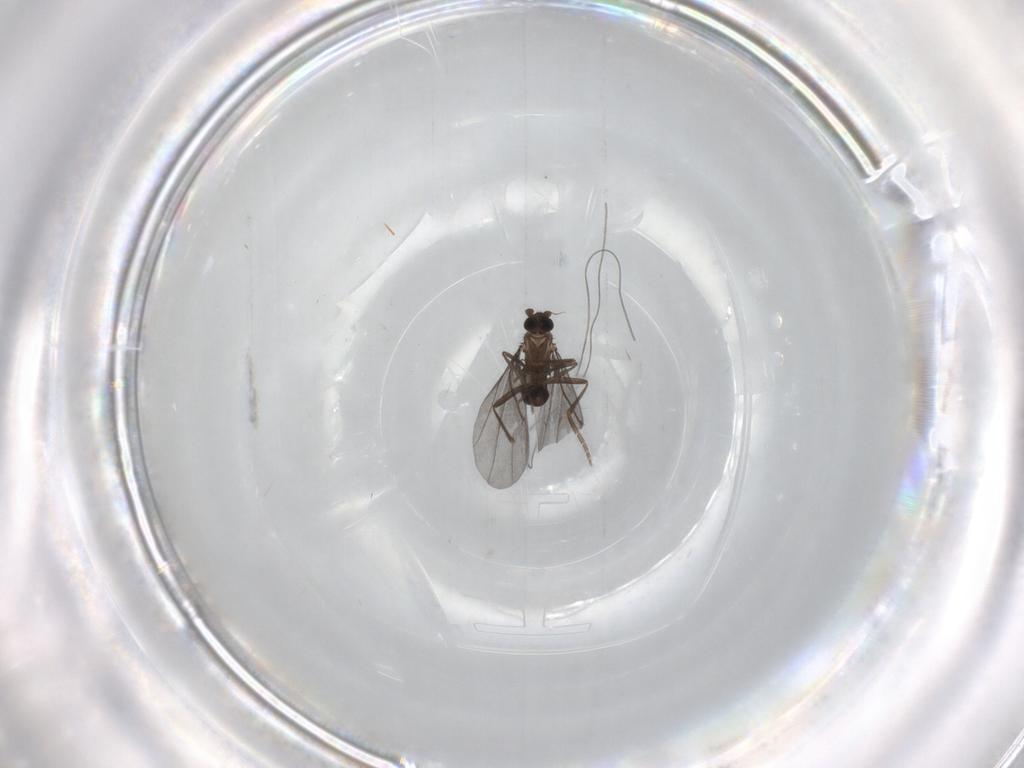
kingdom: Animalia
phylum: Arthropoda
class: Insecta
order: Diptera
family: Phoridae
